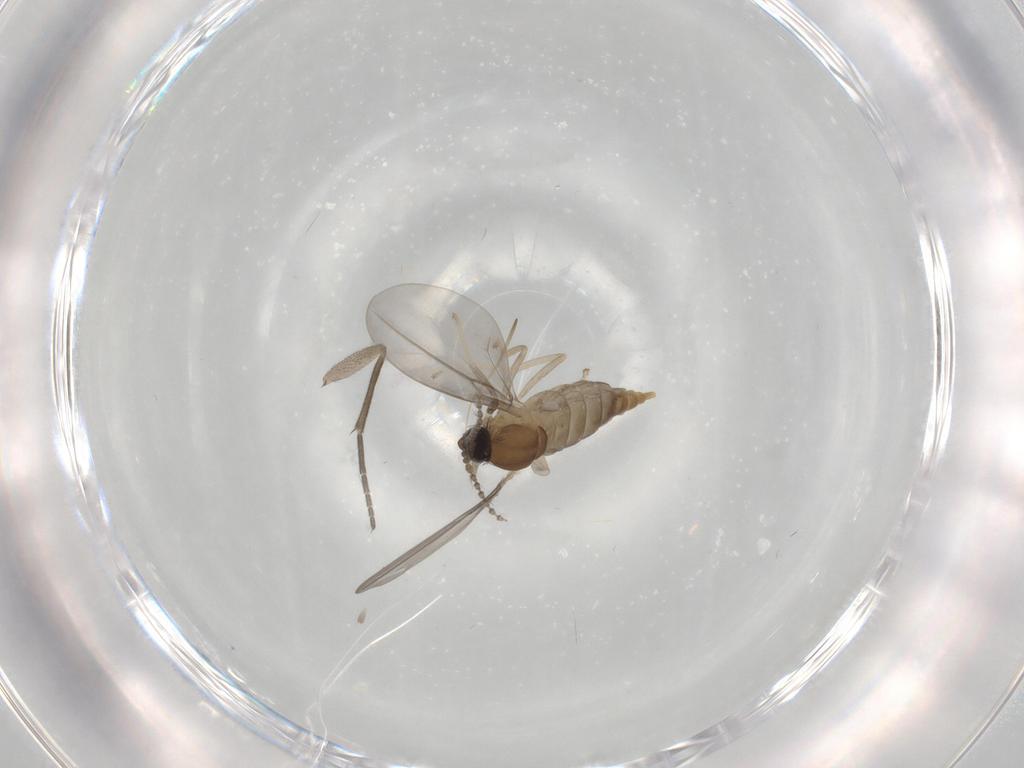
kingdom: Animalia
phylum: Arthropoda
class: Insecta
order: Diptera
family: Cecidomyiidae
